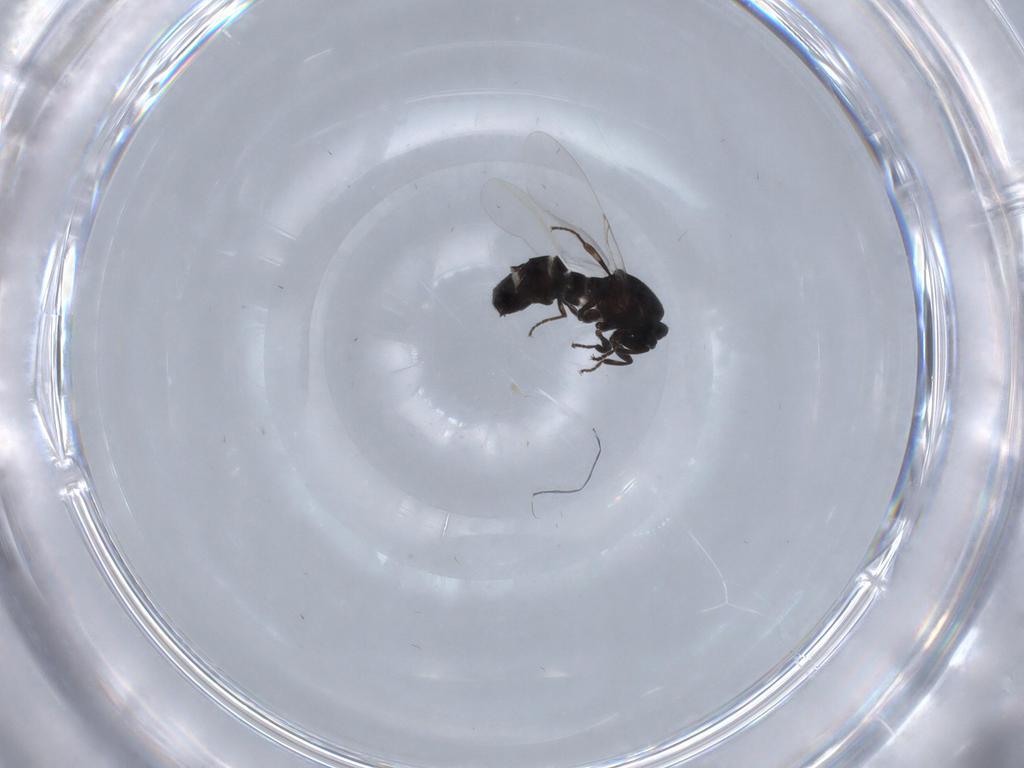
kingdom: Animalia
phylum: Arthropoda
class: Insecta
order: Diptera
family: Scatopsidae
